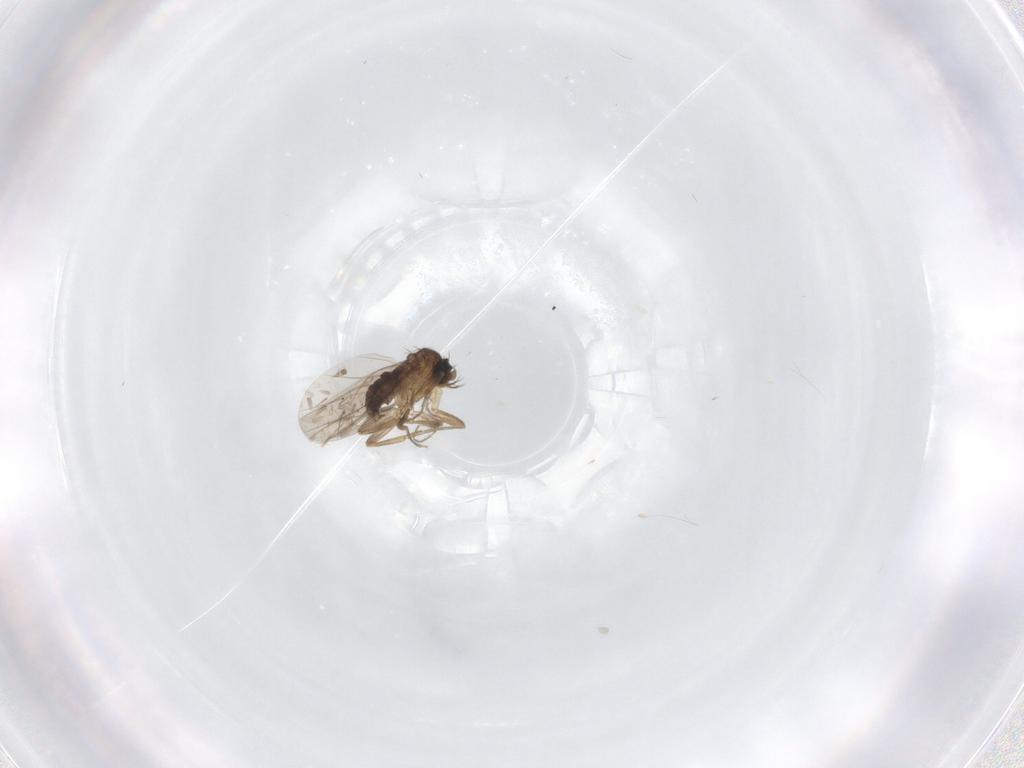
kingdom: Animalia
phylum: Arthropoda
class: Insecta
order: Diptera
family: Phoridae
